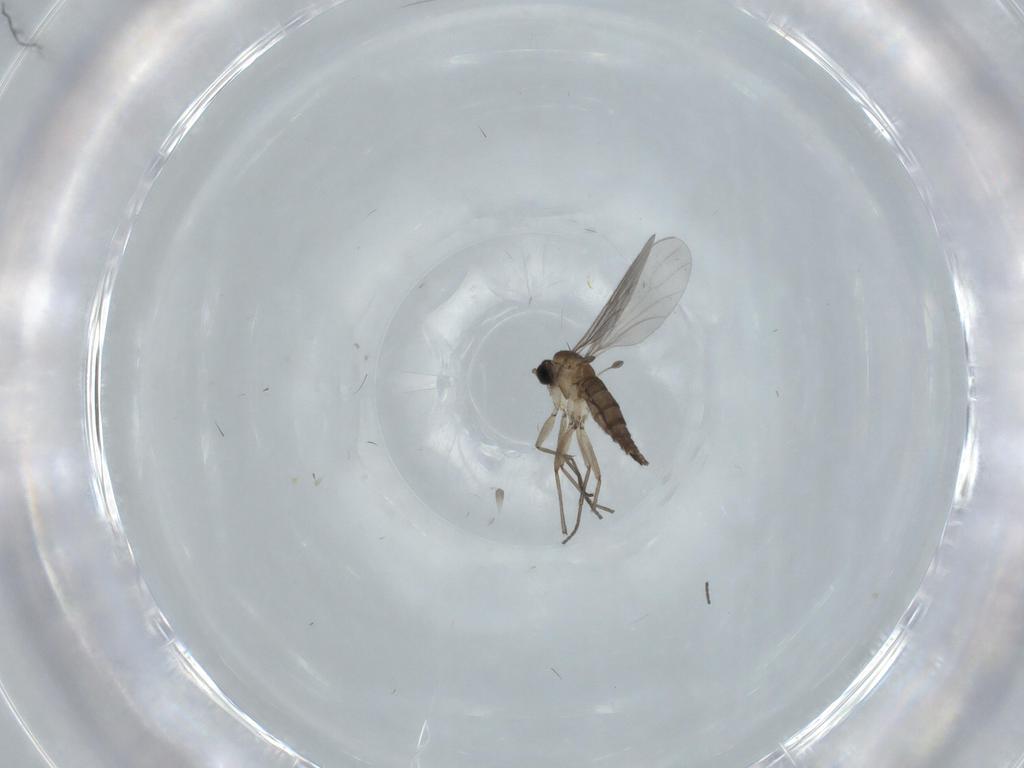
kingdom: Animalia
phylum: Arthropoda
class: Insecta
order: Diptera
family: Sciaridae
